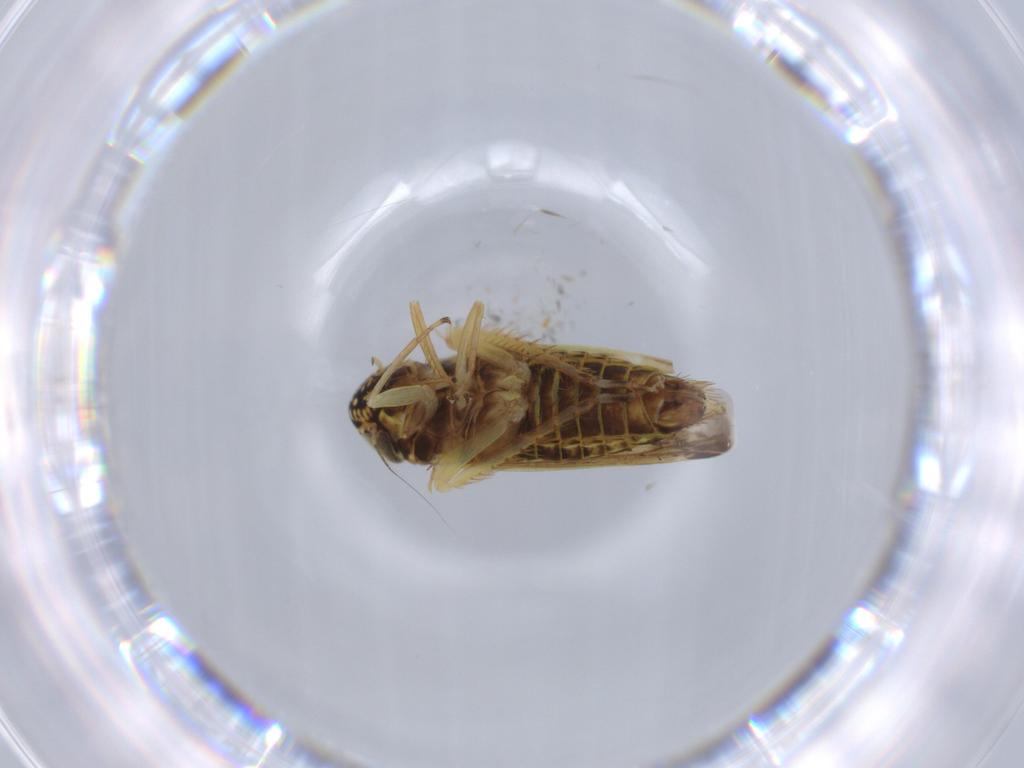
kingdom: Animalia
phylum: Arthropoda
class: Insecta
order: Hemiptera
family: Cicadellidae
